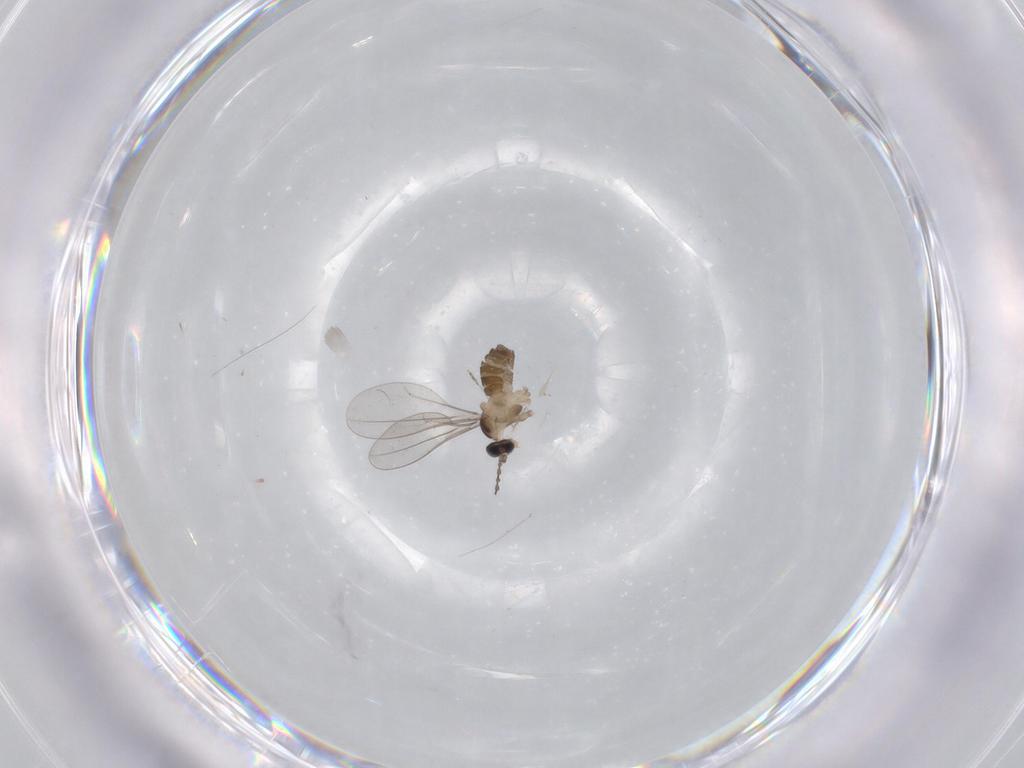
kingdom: Animalia
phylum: Arthropoda
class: Insecta
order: Diptera
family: Cecidomyiidae
